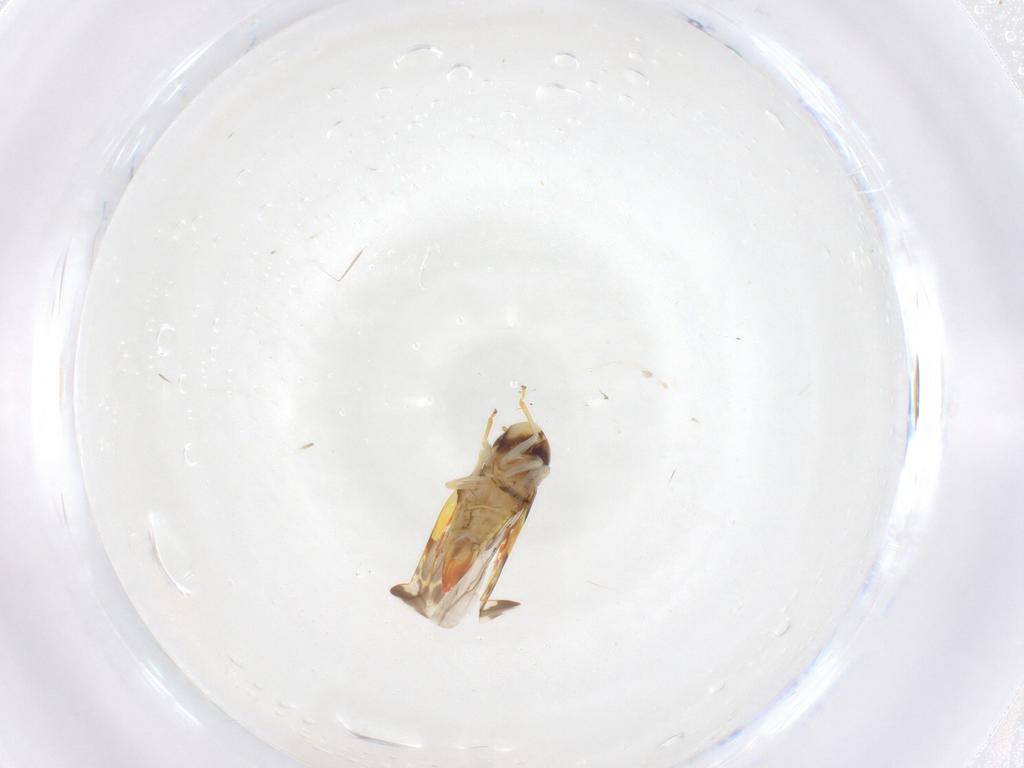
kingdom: Animalia
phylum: Arthropoda
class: Insecta
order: Hemiptera
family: Cicadellidae
